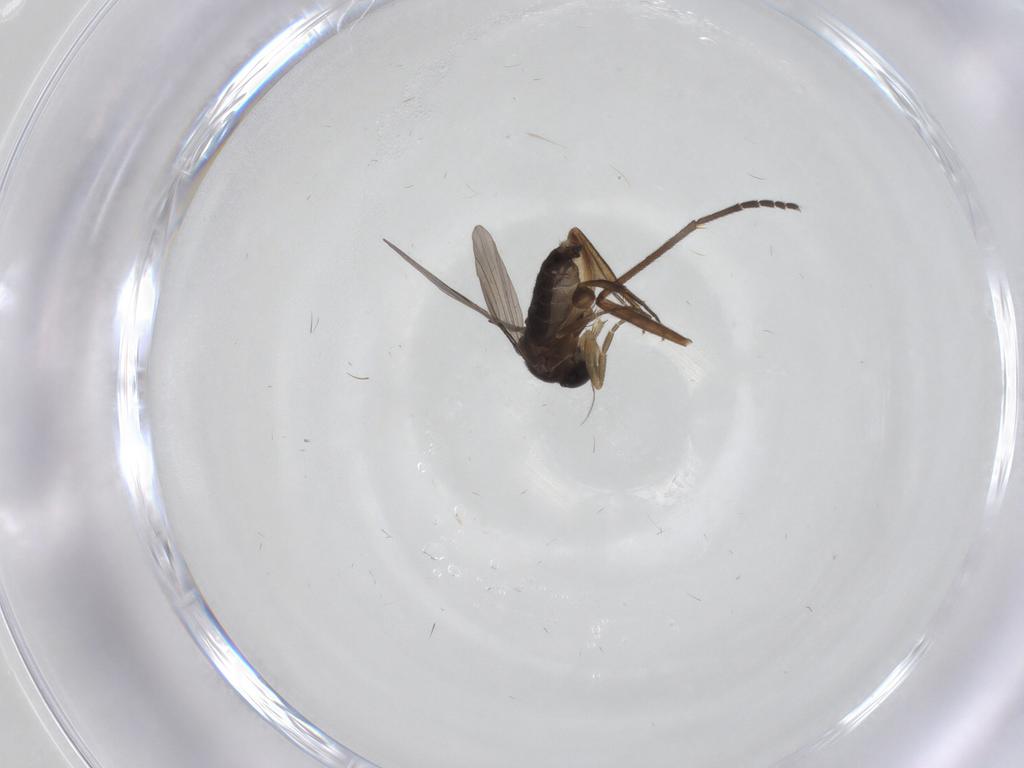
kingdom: Animalia
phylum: Arthropoda
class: Insecta
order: Diptera
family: Phoridae
